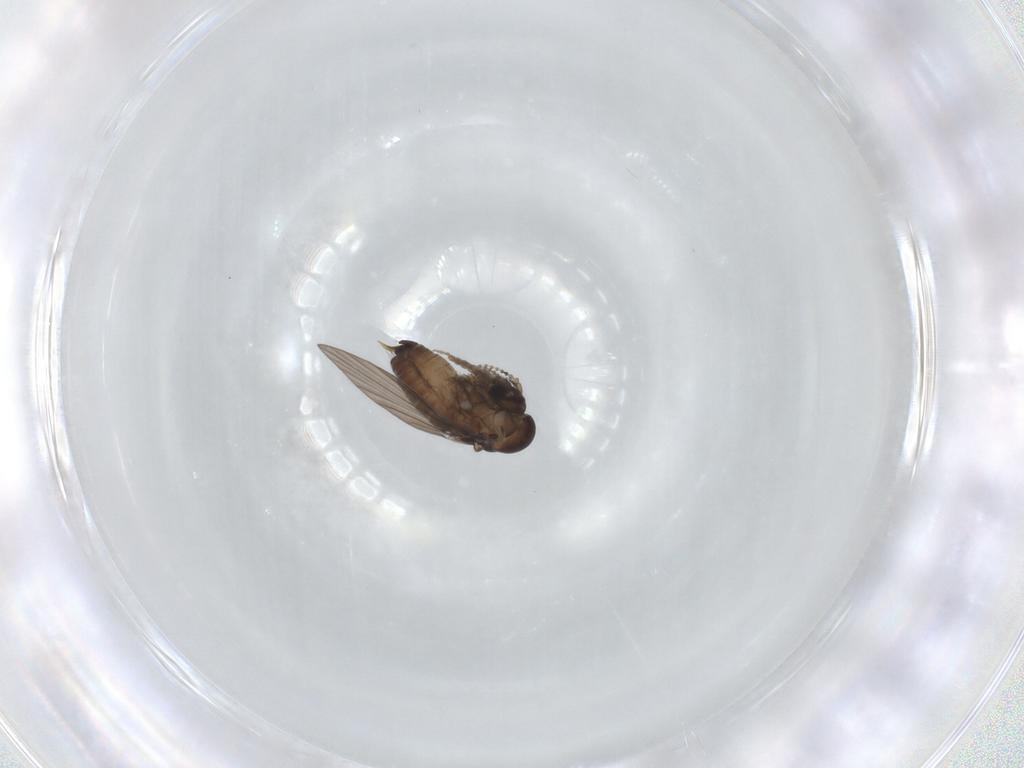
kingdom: Animalia
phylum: Arthropoda
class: Insecta
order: Diptera
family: Psychodidae
